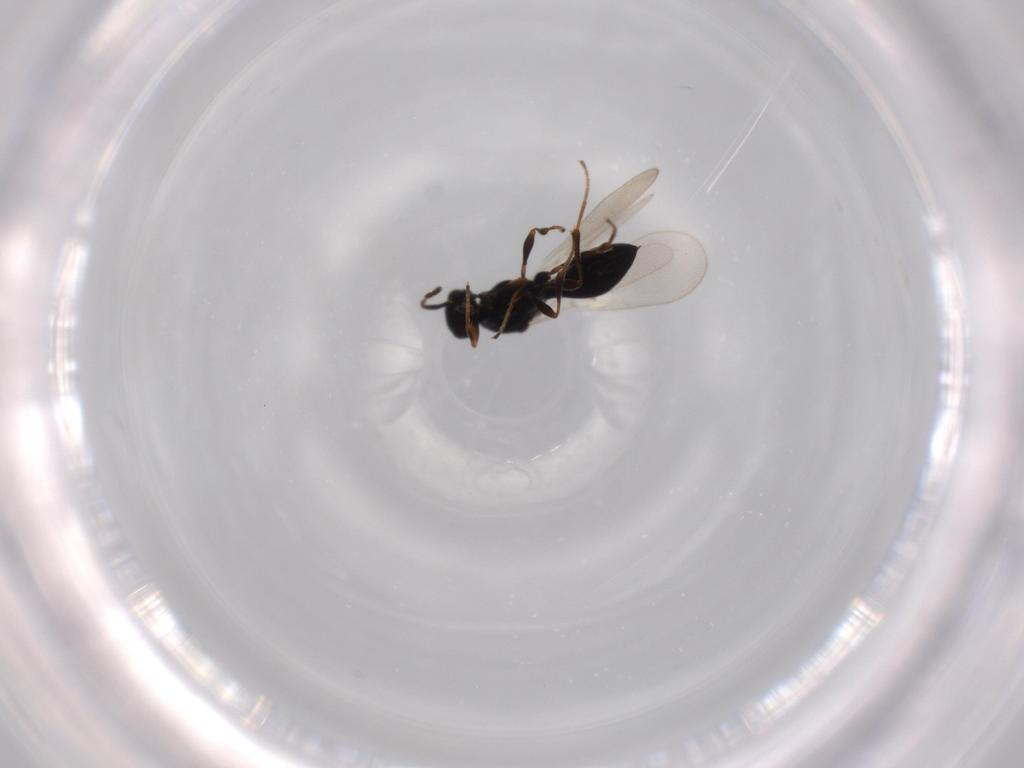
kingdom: Animalia
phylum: Arthropoda
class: Insecta
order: Diptera
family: Mythicomyiidae
